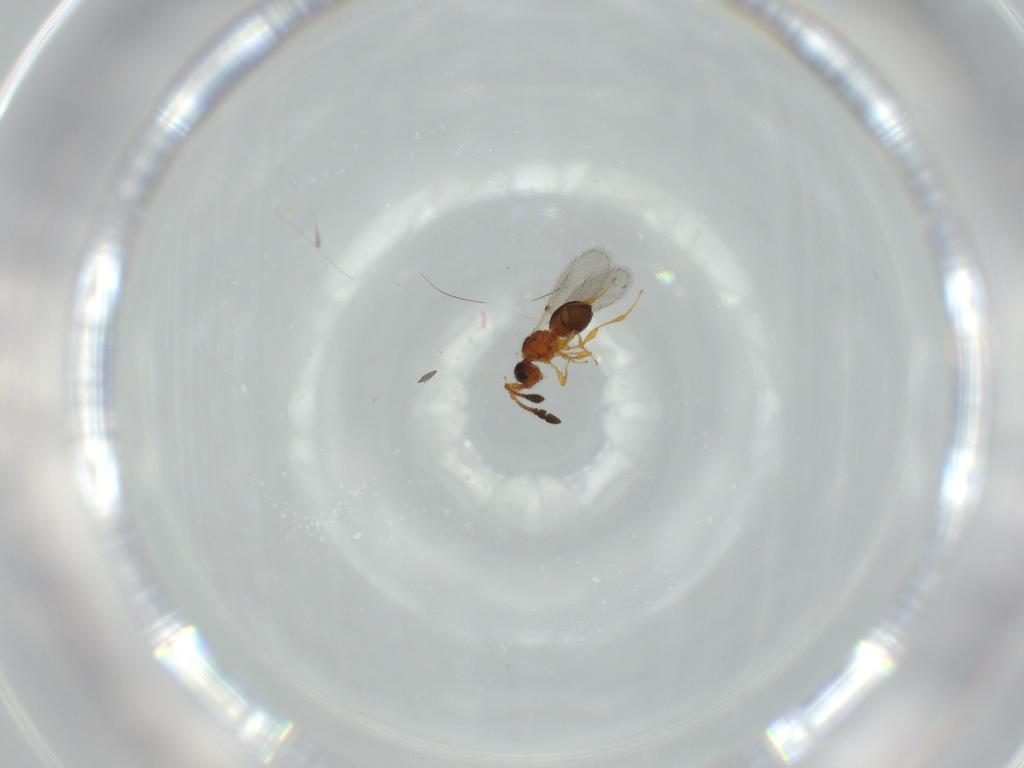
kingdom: Animalia
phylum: Arthropoda
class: Insecta
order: Hymenoptera
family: Diapriidae
